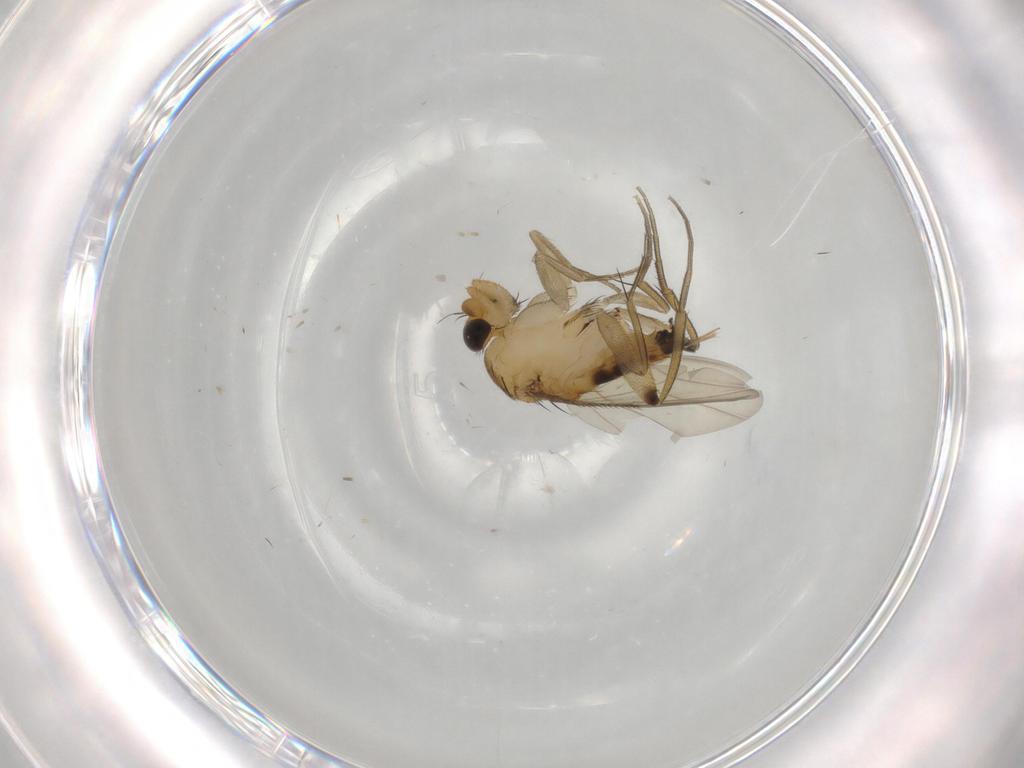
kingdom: Animalia
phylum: Arthropoda
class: Insecta
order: Diptera
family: Phoridae
